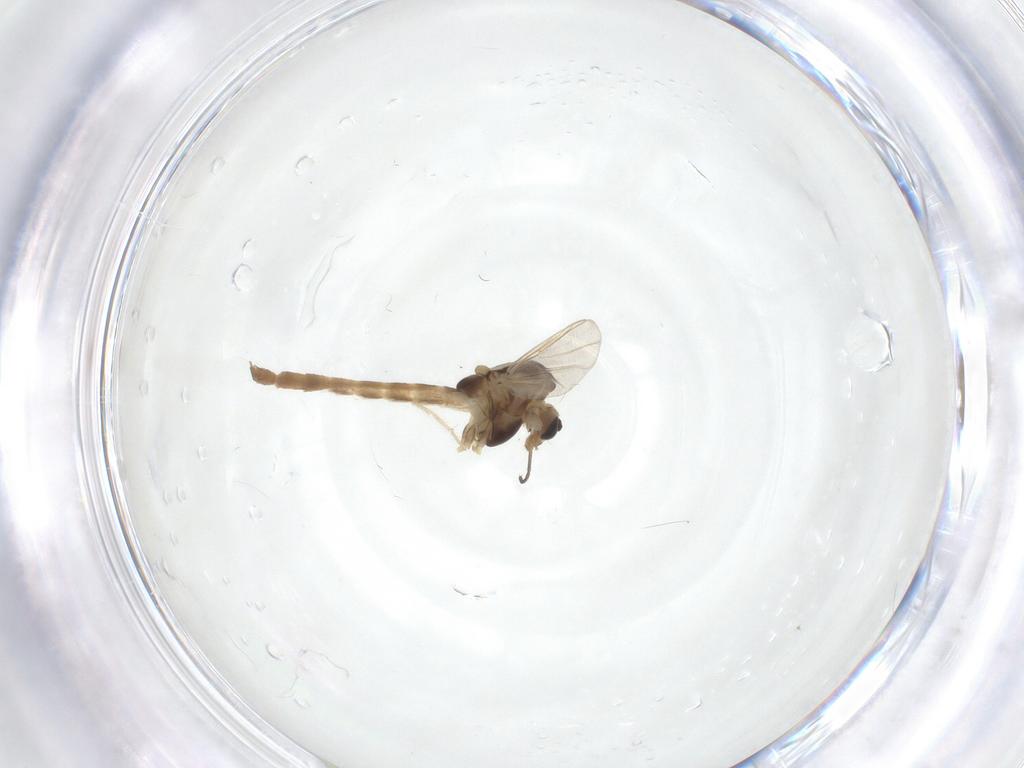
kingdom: Animalia
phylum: Arthropoda
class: Insecta
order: Diptera
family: Chironomidae
